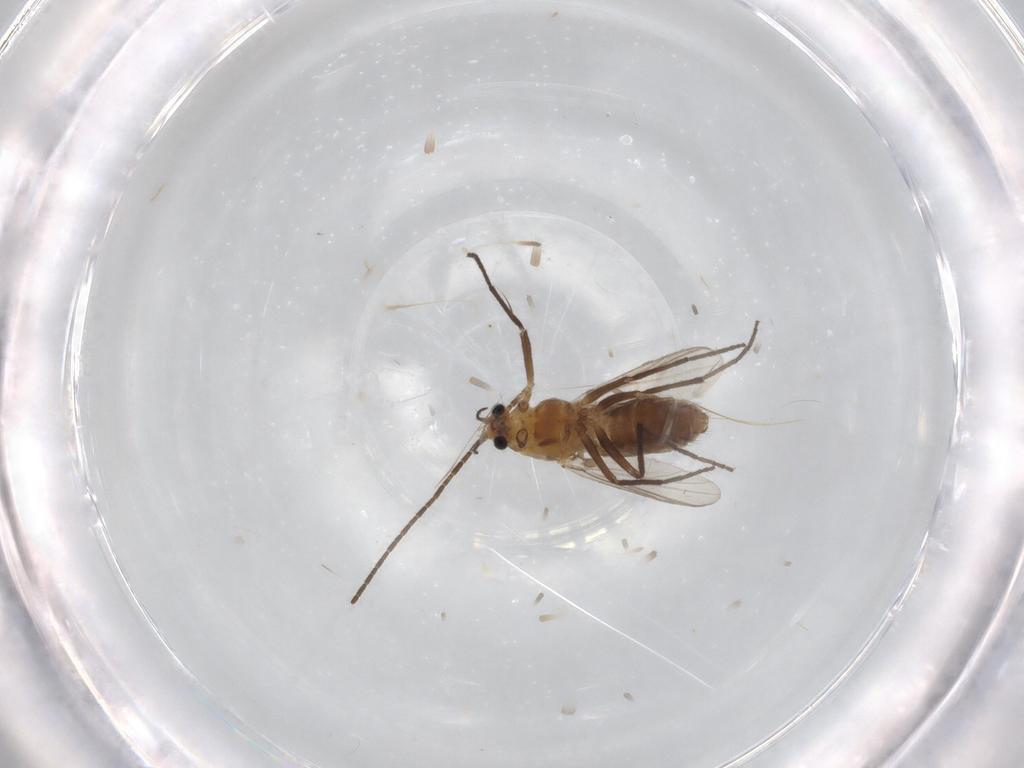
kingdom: Animalia
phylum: Arthropoda
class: Insecta
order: Diptera
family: Chironomidae
